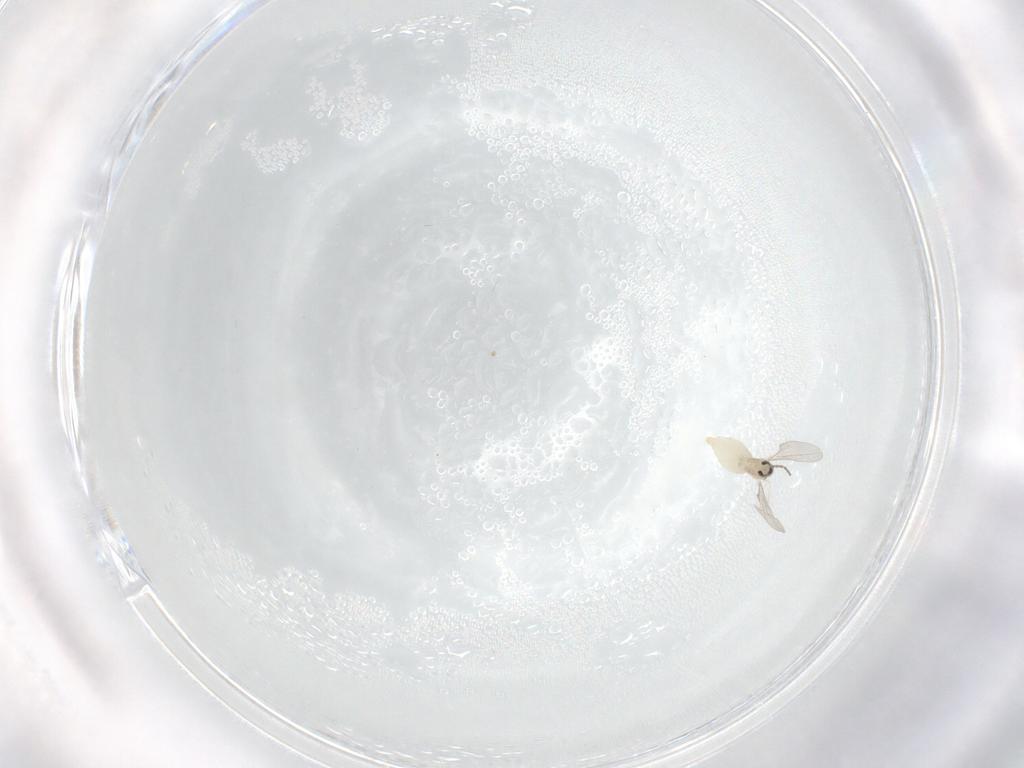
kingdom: Animalia
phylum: Arthropoda
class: Insecta
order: Diptera
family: Cecidomyiidae
